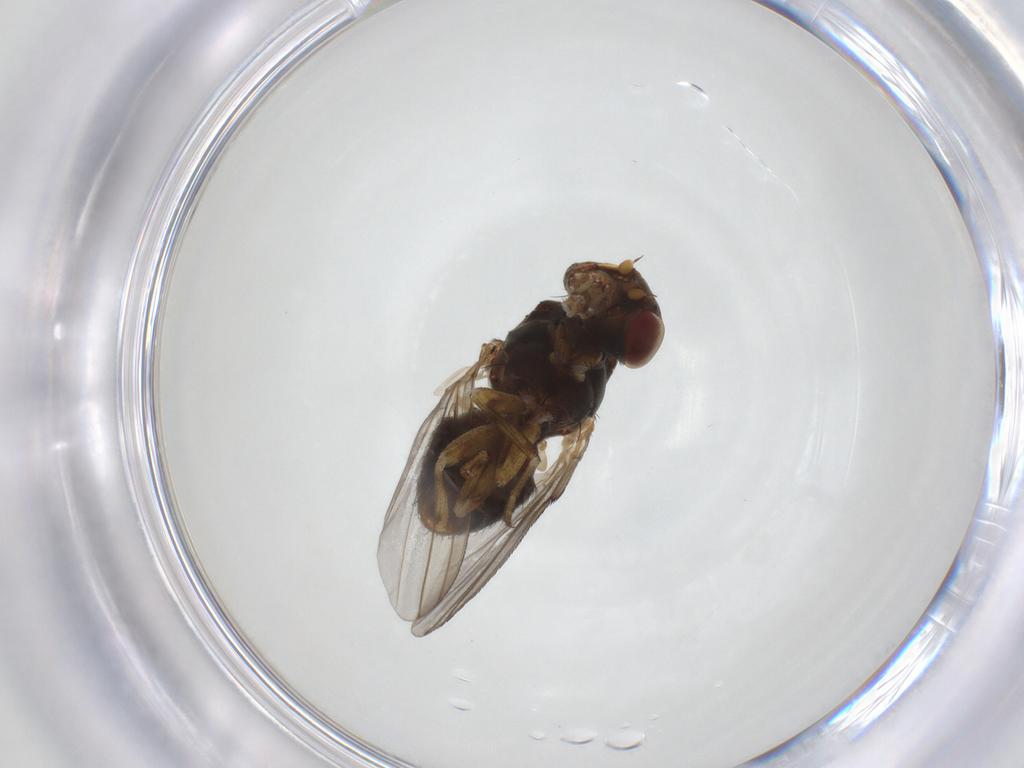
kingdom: Animalia
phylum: Arthropoda
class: Insecta
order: Diptera
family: Odiniidae
